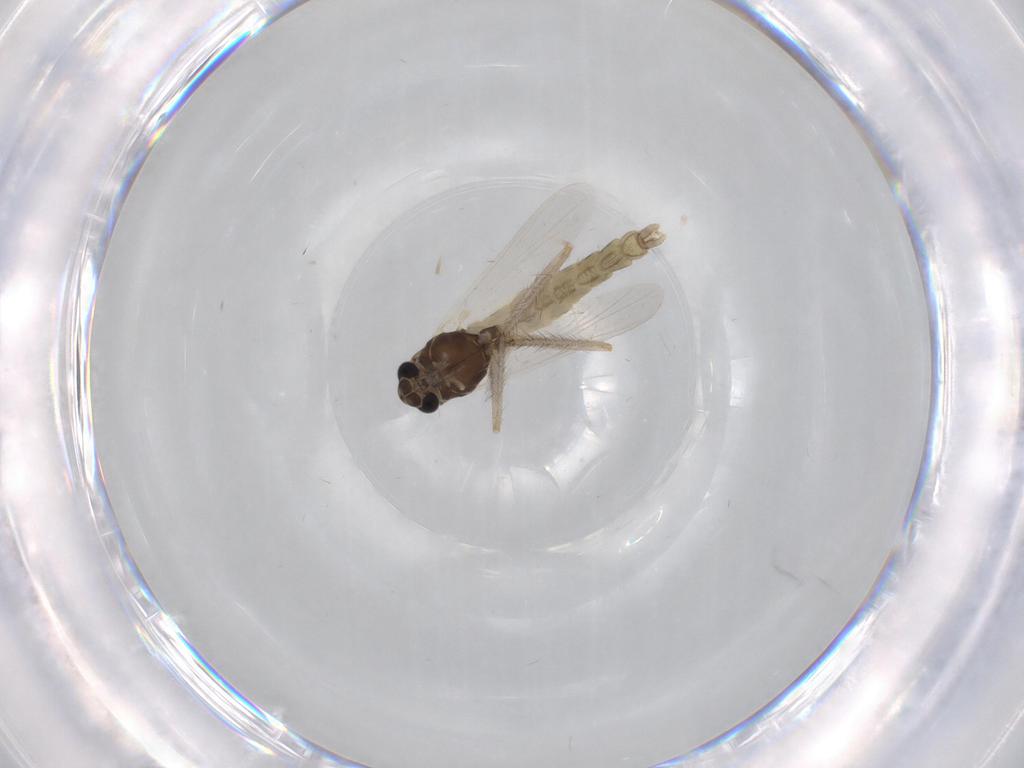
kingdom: Animalia
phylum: Arthropoda
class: Insecta
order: Diptera
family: Chironomidae
